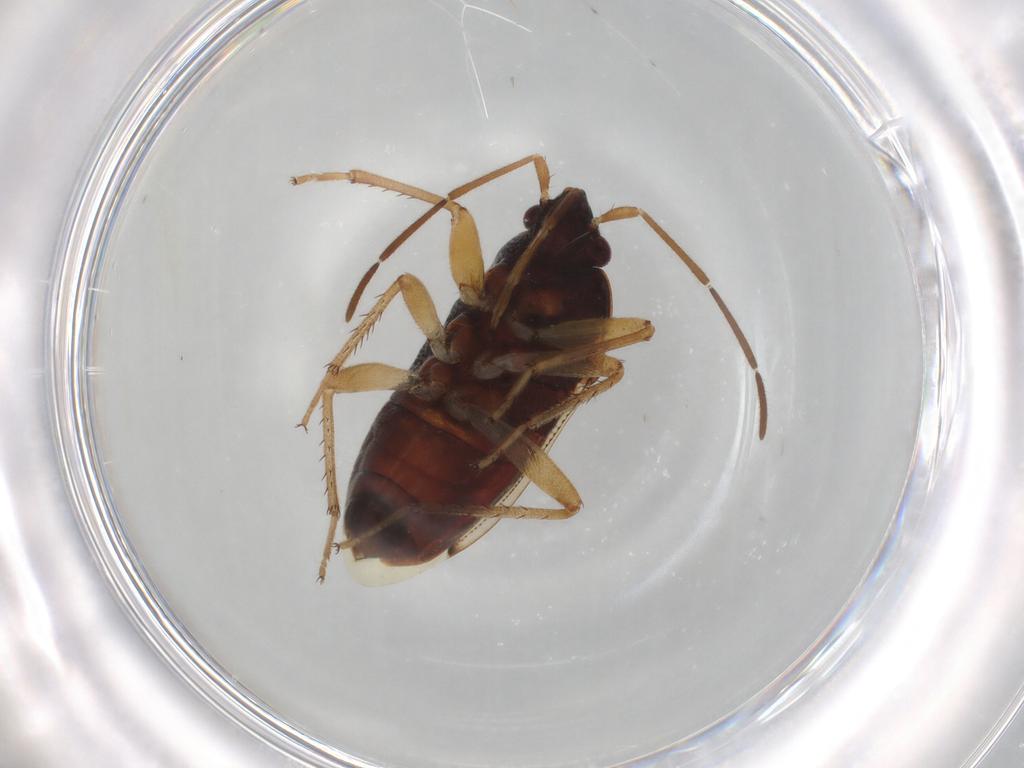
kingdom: Animalia
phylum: Arthropoda
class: Insecta
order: Hemiptera
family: Rhyparochromidae
